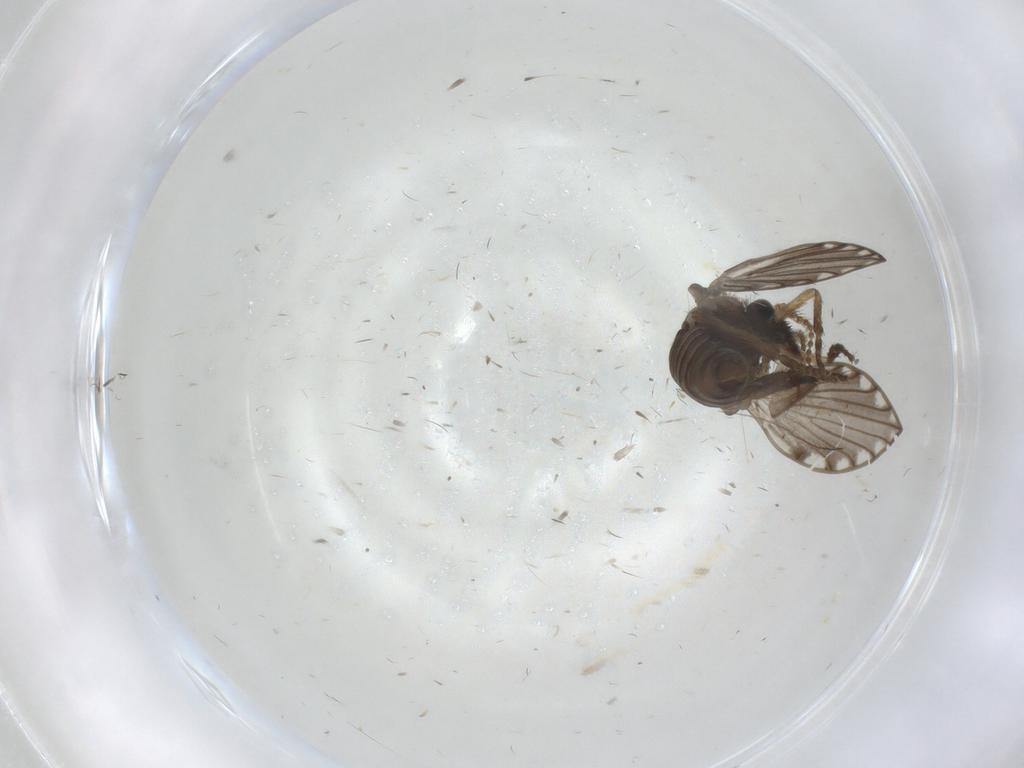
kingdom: Animalia
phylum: Arthropoda
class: Insecta
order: Diptera
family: Psychodidae
